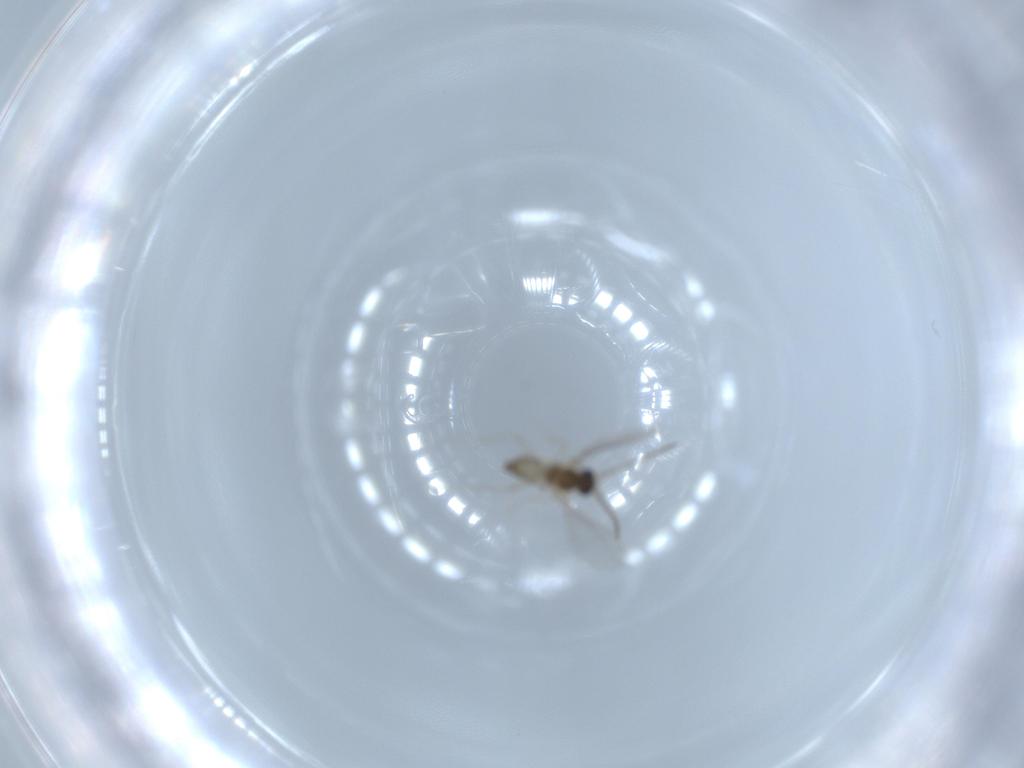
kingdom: Animalia
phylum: Arthropoda
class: Insecta
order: Diptera
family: Cecidomyiidae
